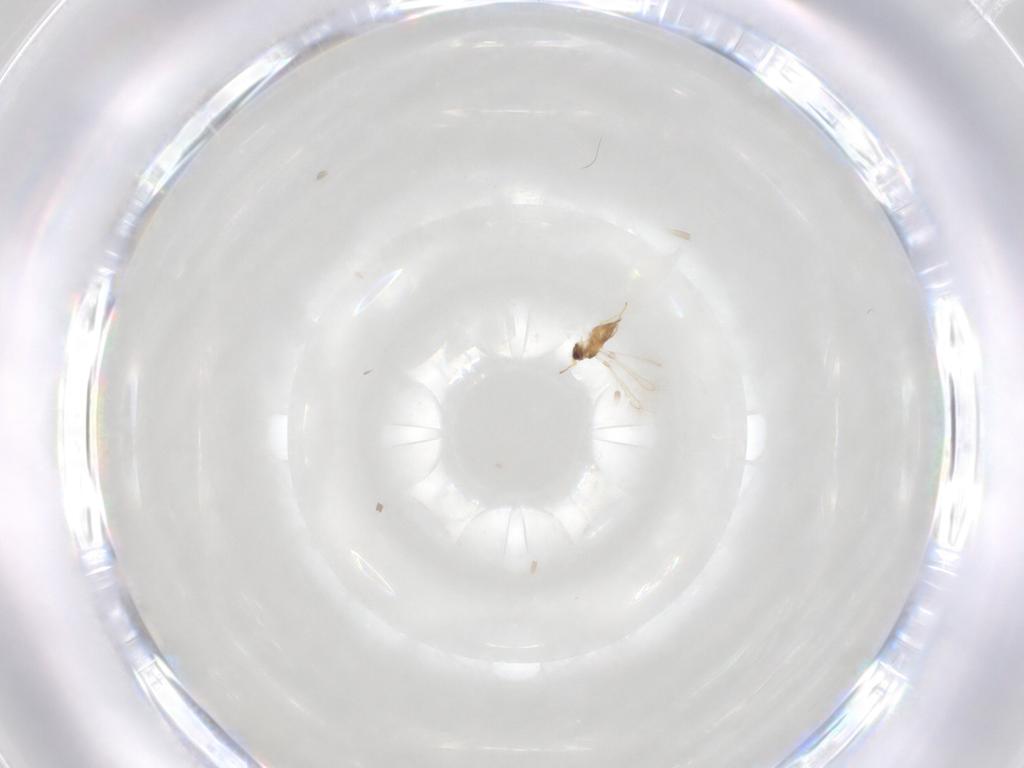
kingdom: Animalia
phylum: Arthropoda
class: Insecta
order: Hymenoptera
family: Mymaridae
